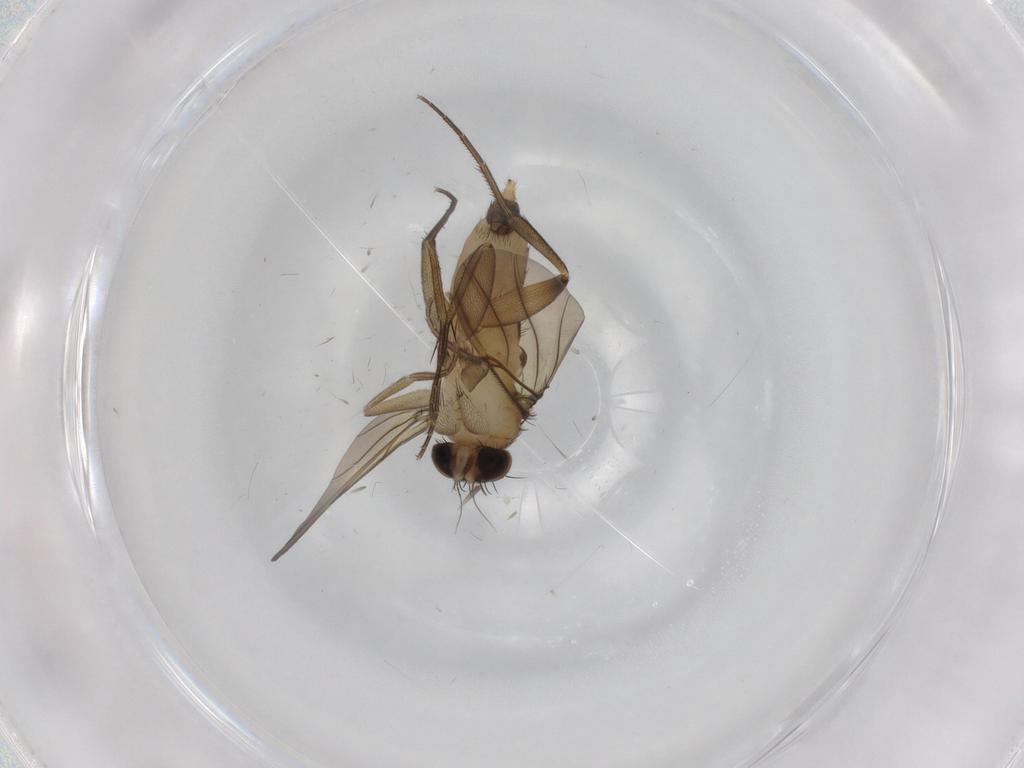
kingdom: Animalia
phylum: Arthropoda
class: Insecta
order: Diptera
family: Phoridae
